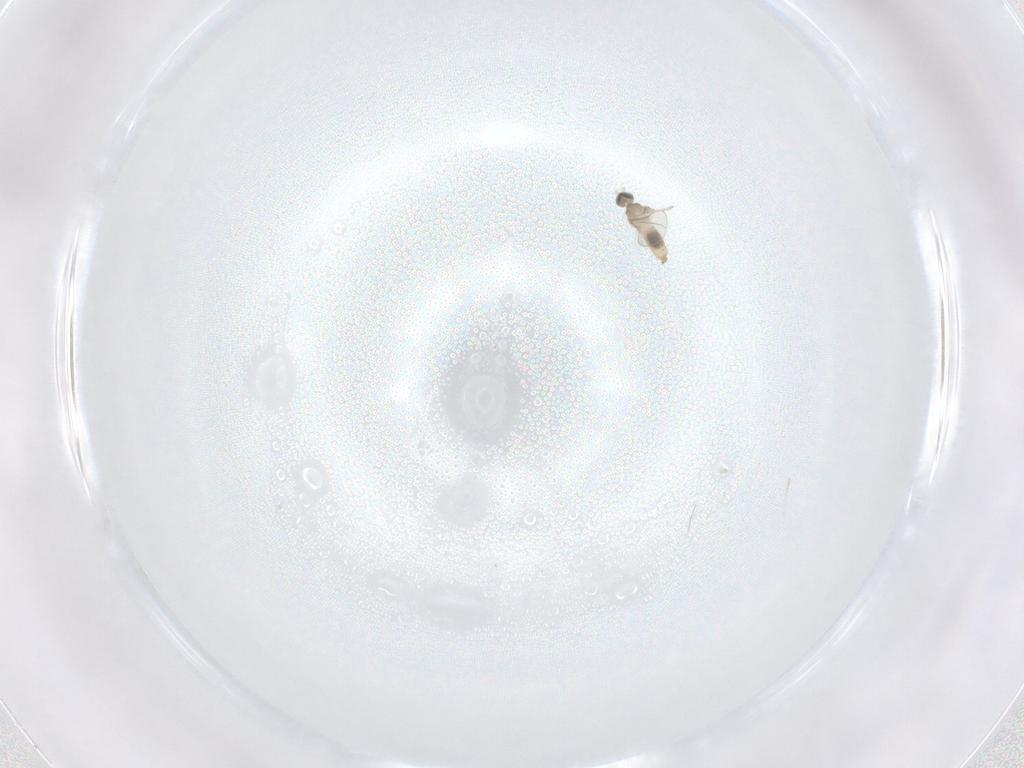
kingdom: Animalia
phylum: Arthropoda
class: Insecta
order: Diptera
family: Cecidomyiidae
